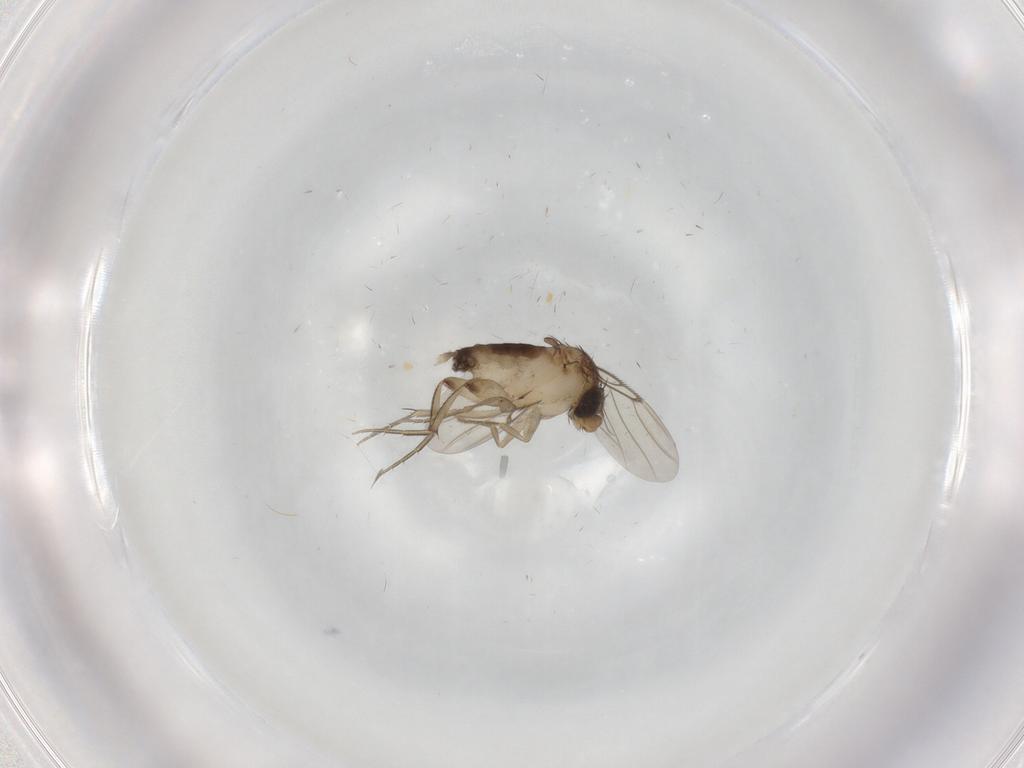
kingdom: Animalia
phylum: Arthropoda
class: Insecta
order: Diptera
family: Phoridae
